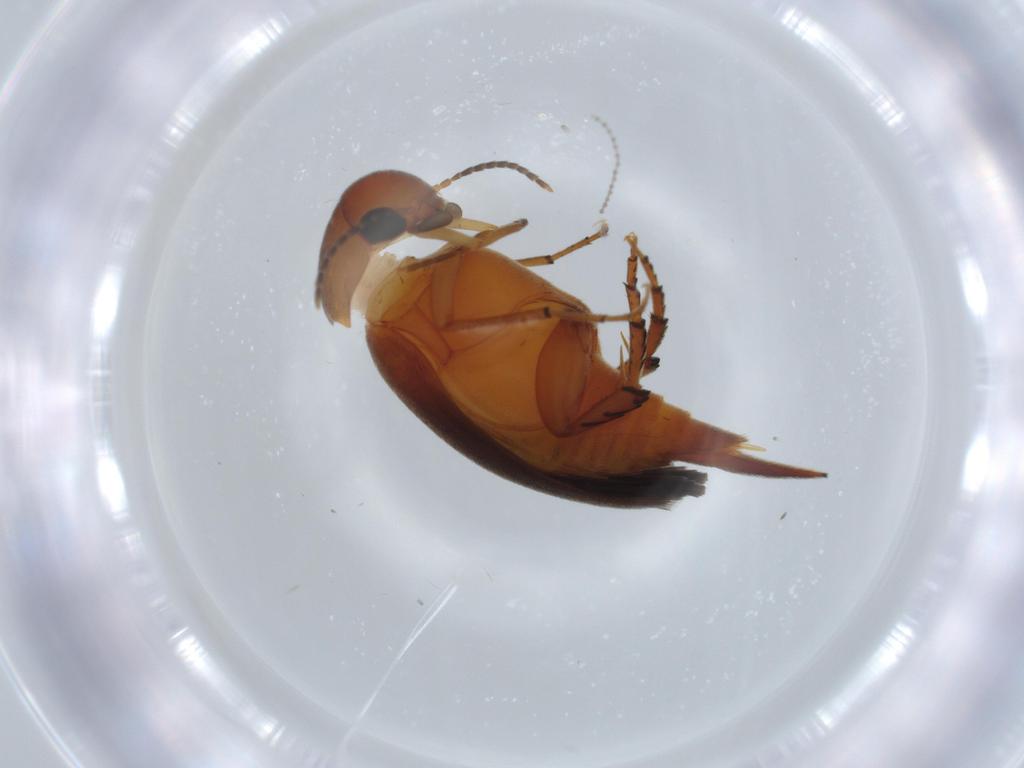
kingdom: Animalia
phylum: Arthropoda
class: Insecta
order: Coleoptera
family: Mordellidae
